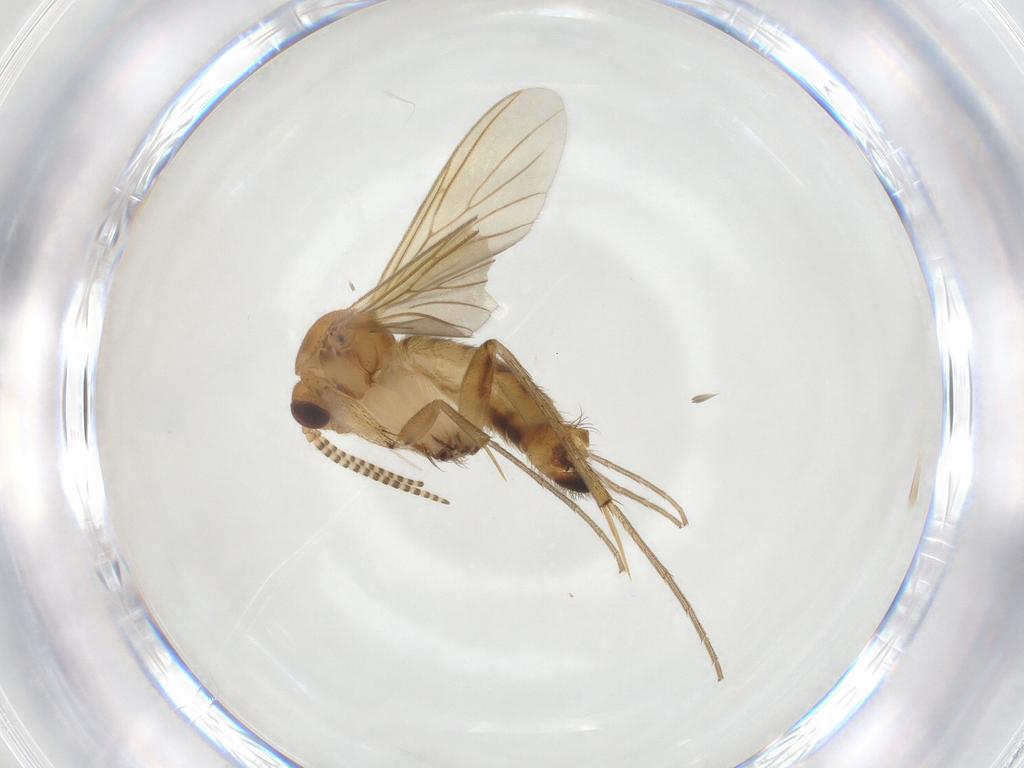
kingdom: Animalia
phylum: Arthropoda
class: Insecta
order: Diptera
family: Mycetophilidae
